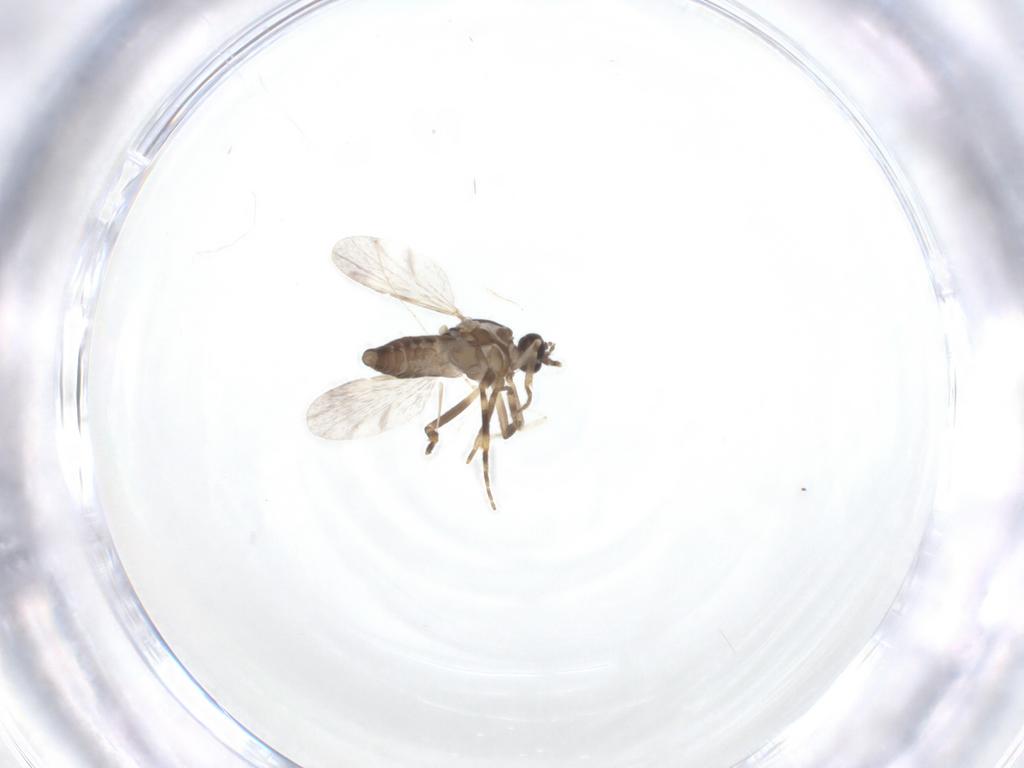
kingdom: Animalia
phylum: Arthropoda
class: Insecta
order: Diptera
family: Cecidomyiidae
